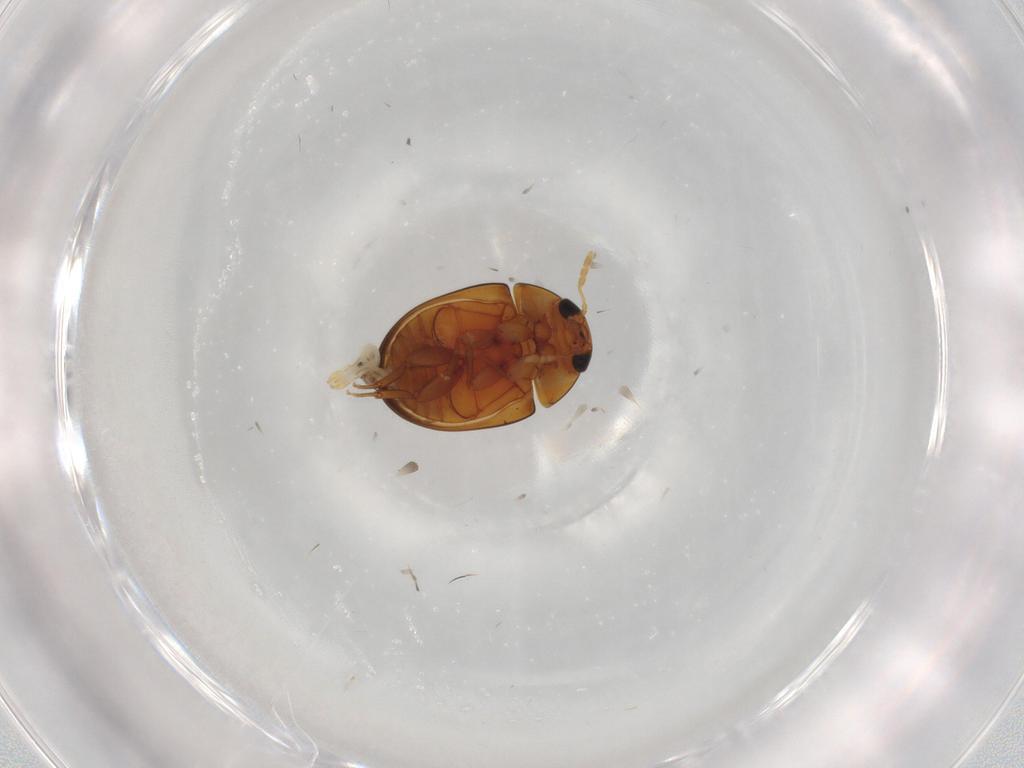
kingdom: Animalia
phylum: Arthropoda
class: Insecta
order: Coleoptera
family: Phalacridae
